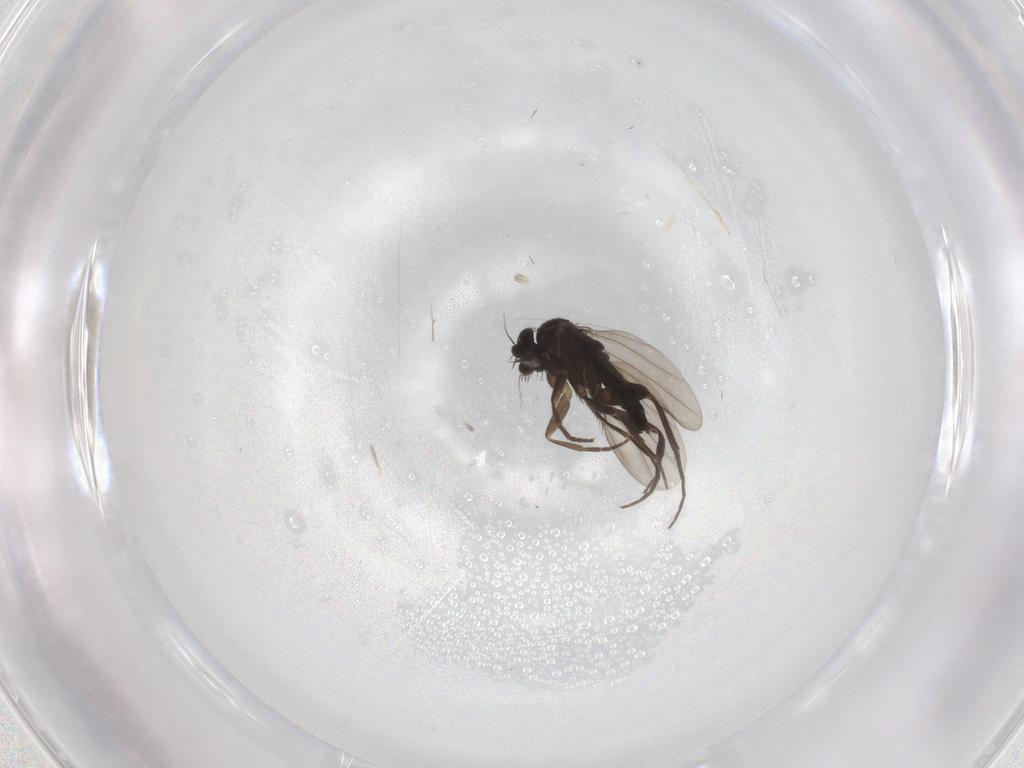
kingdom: Animalia
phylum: Arthropoda
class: Insecta
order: Diptera
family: Phoridae
